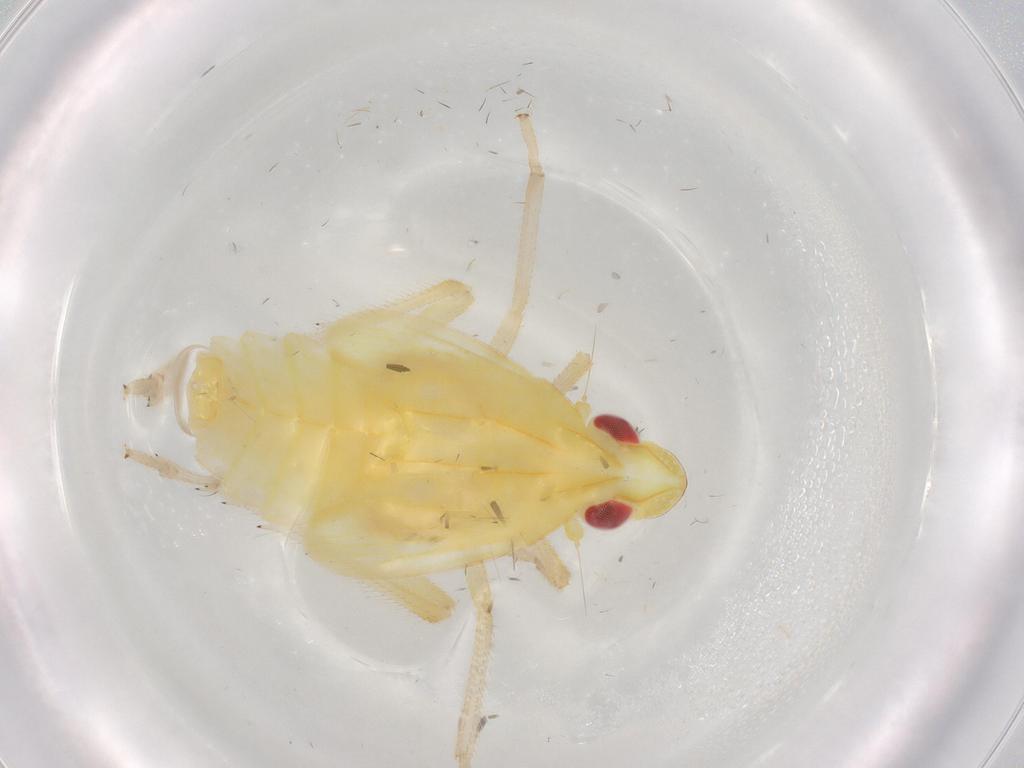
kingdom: Animalia
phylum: Arthropoda
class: Insecta
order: Hemiptera
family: Fulgoroidea_incertae_sedis
